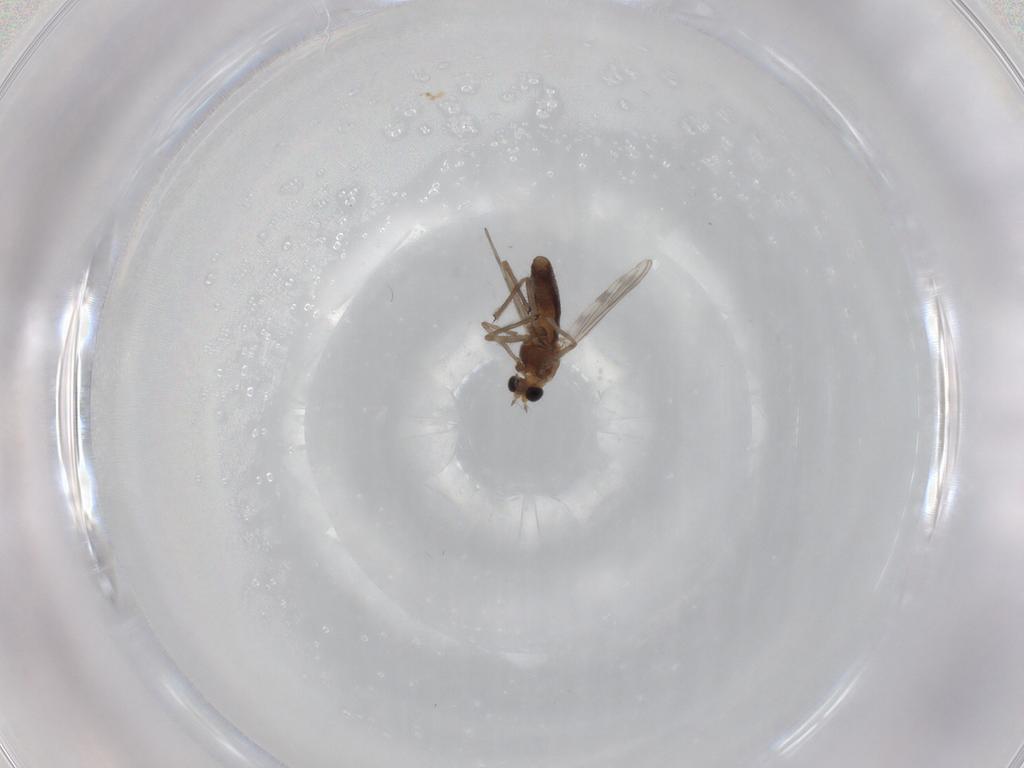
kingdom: Animalia
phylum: Arthropoda
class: Insecta
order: Diptera
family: Chironomidae
